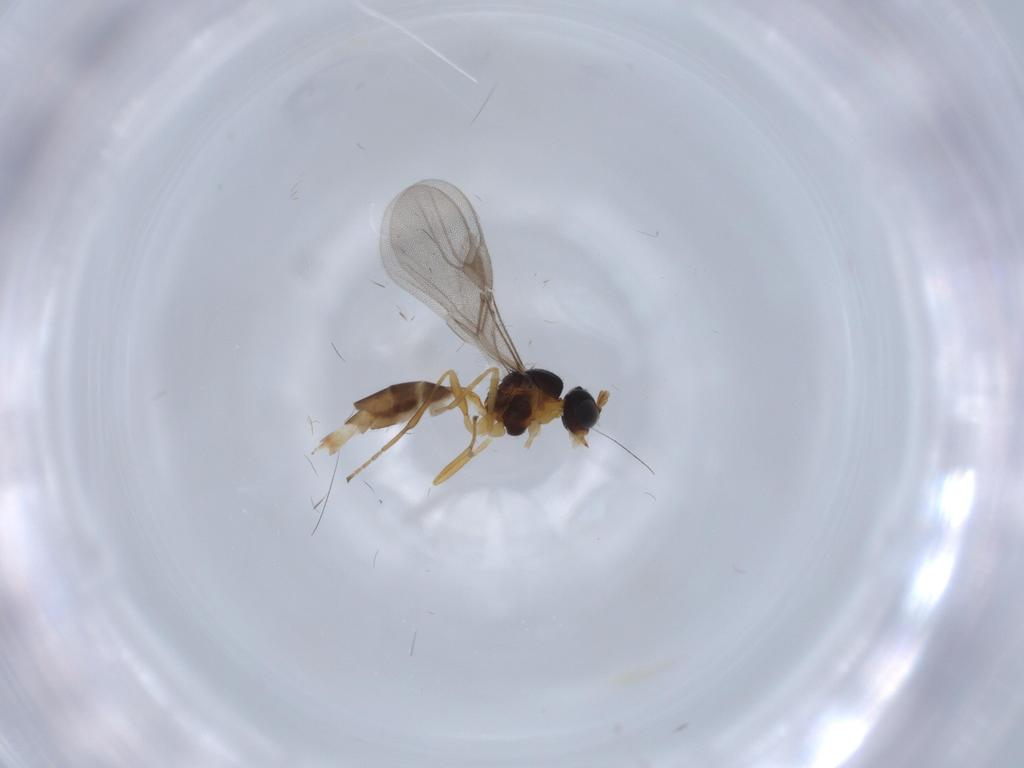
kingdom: Animalia
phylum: Arthropoda
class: Insecta
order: Hymenoptera
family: Braconidae
